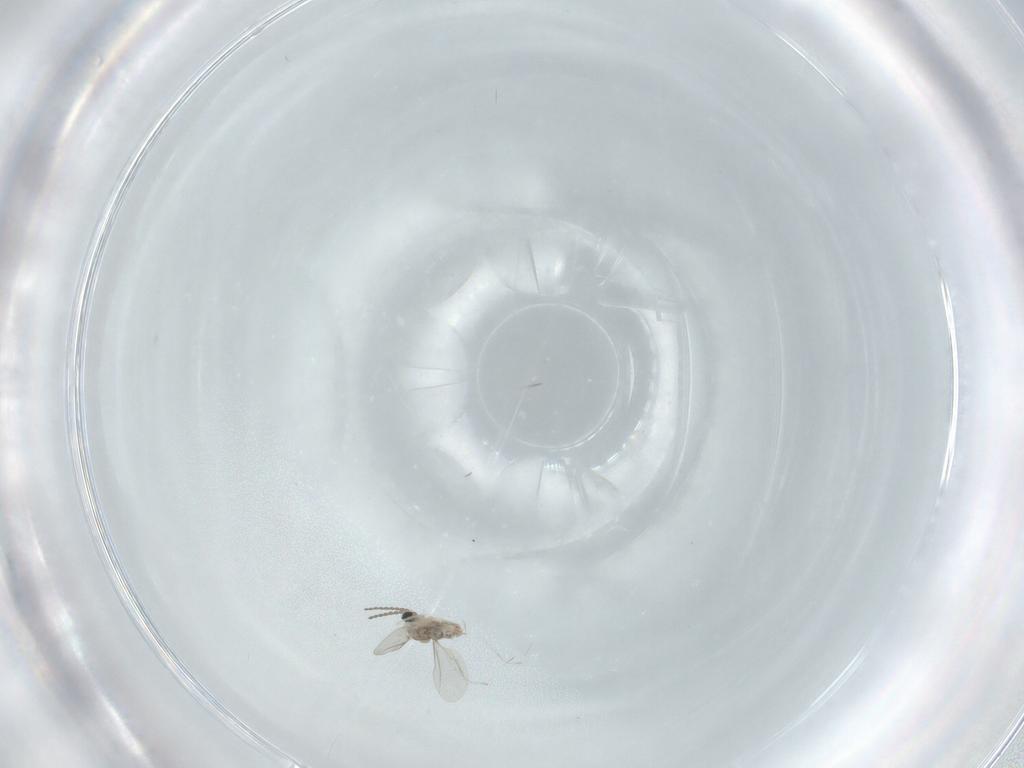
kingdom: Animalia
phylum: Arthropoda
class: Insecta
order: Diptera
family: Cecidomyiidae
